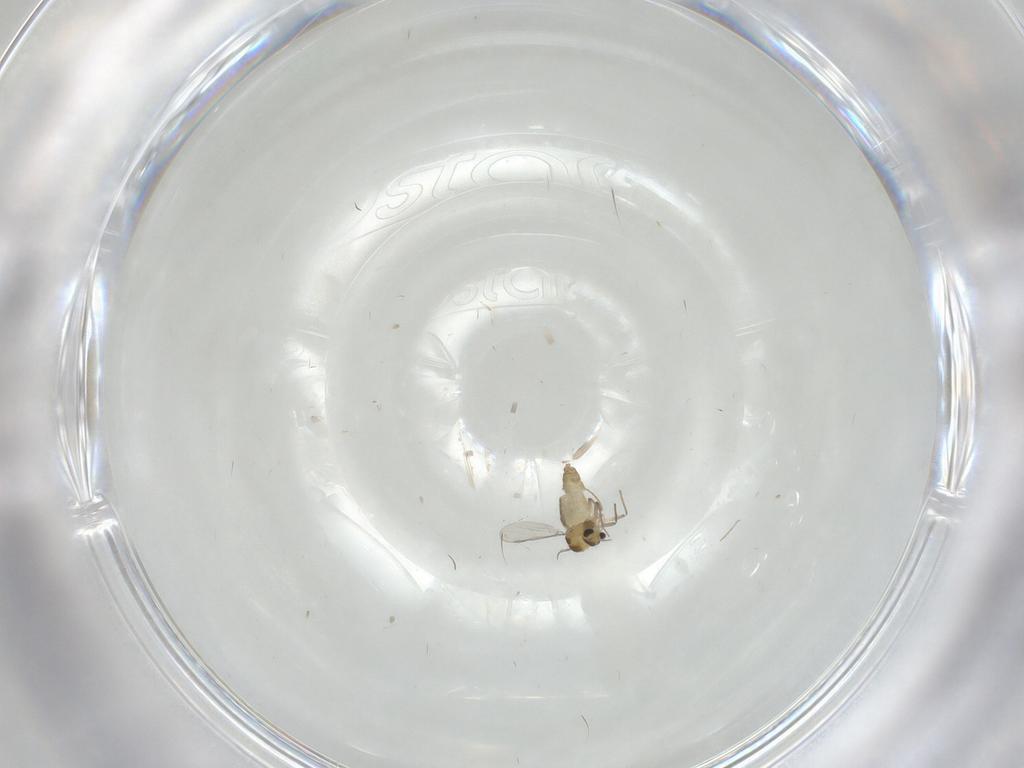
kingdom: Animalia
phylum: Arthropoda
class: Insecta
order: Diptera
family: Chironomidae
